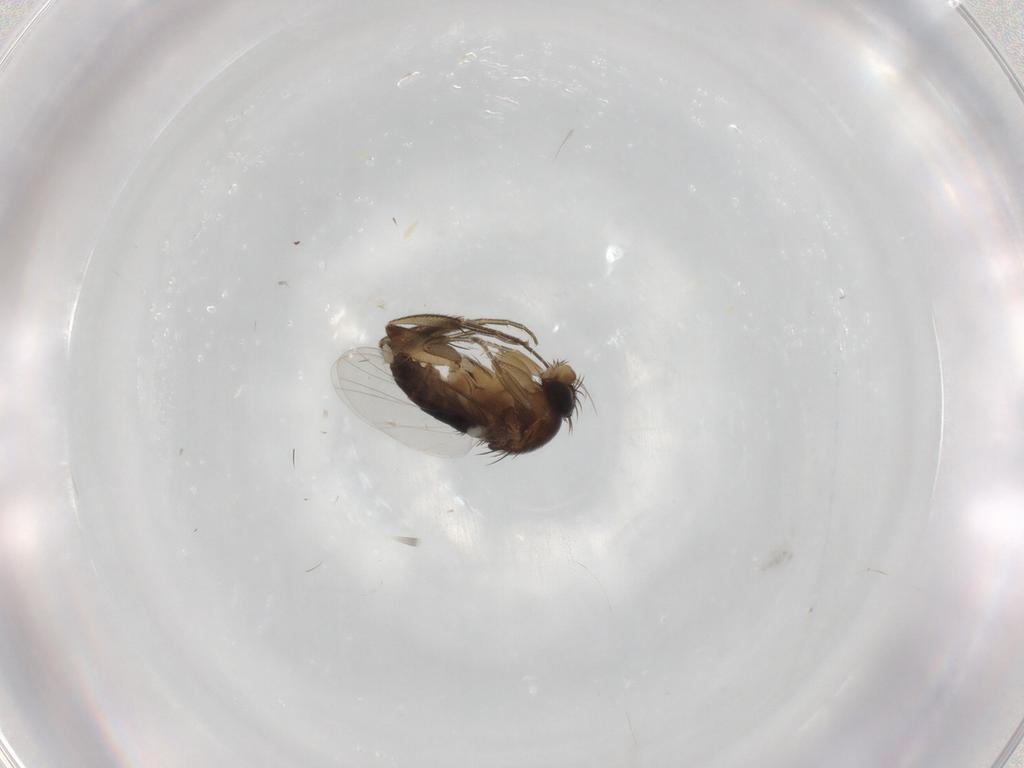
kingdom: Animalia
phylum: Arthropoda
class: Insecta
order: Diptera
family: Phoridae
